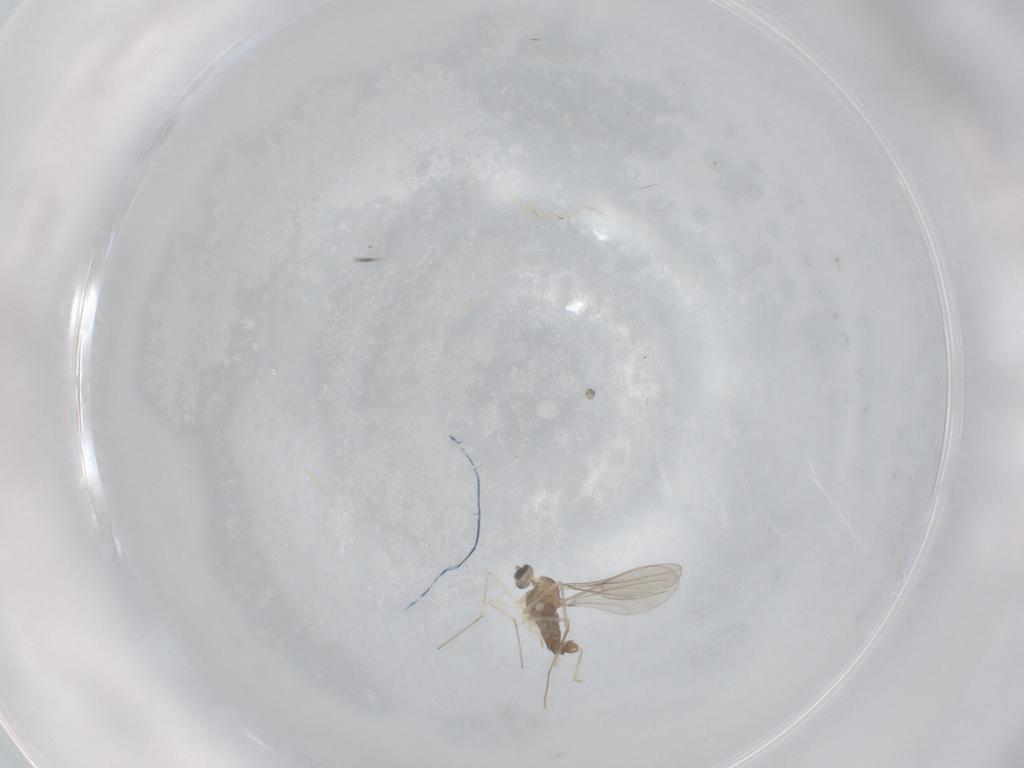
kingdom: Animalia
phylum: Arthropoda
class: Insecta
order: Diptera
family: Chironomidae
